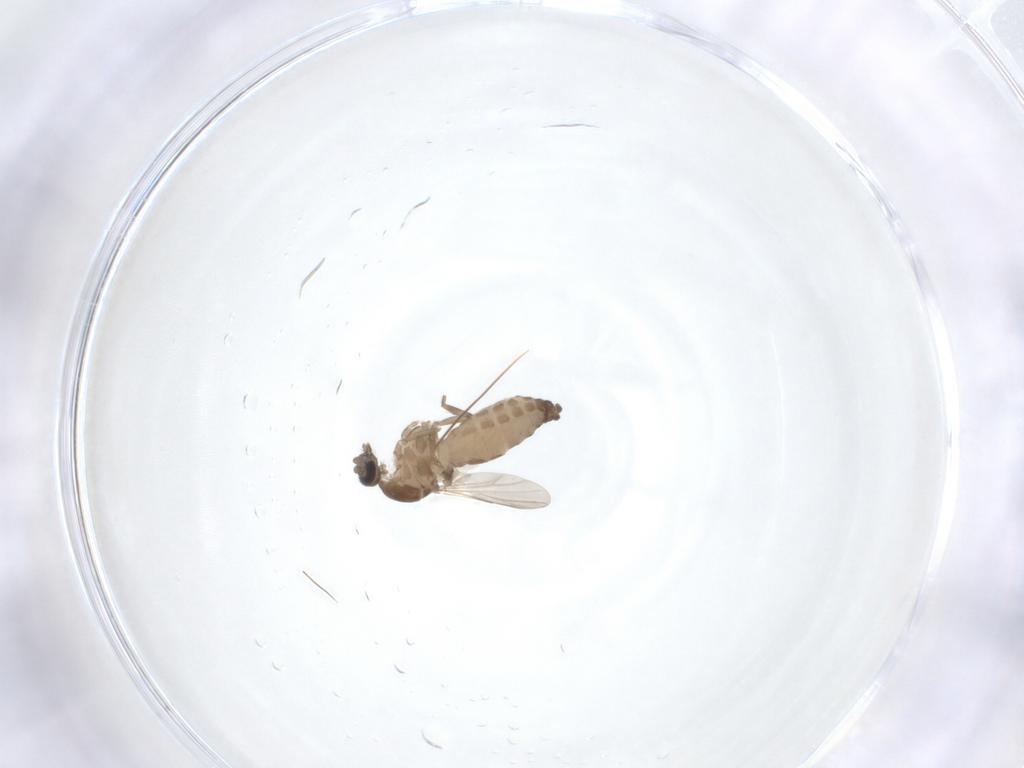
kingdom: Animalia
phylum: Arthropoda
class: Insecta
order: Diptera
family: Ceratopogonidae
